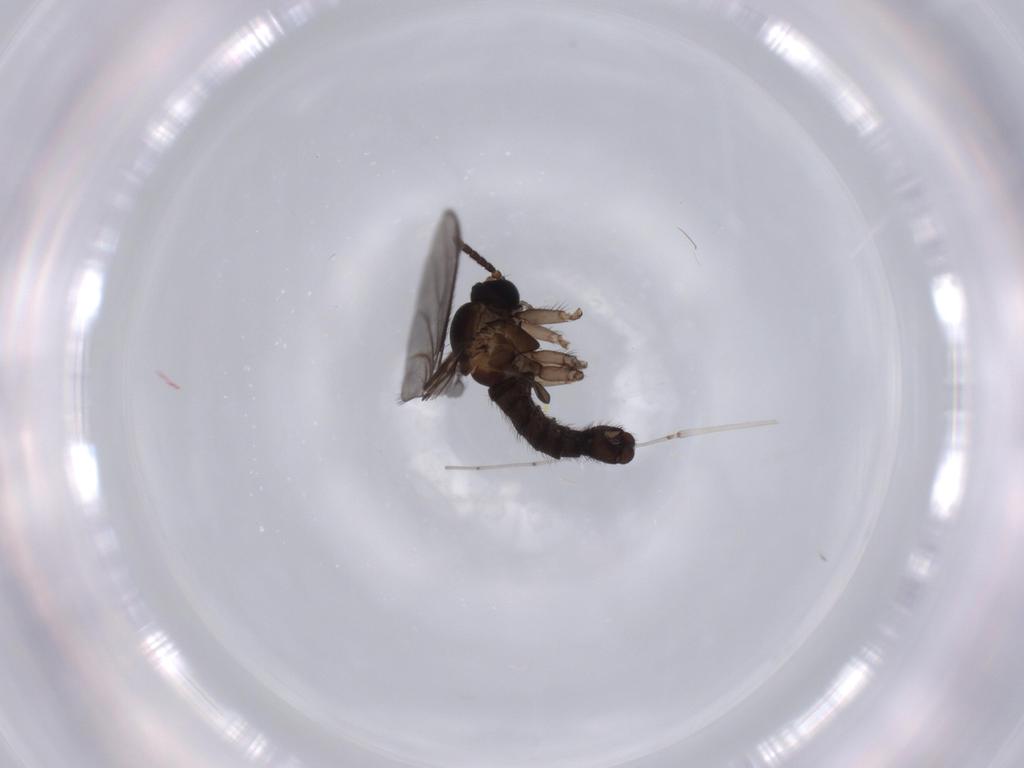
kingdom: Animalia
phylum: Arthropoda
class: Insecta
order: Diptera
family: Sciaridae
